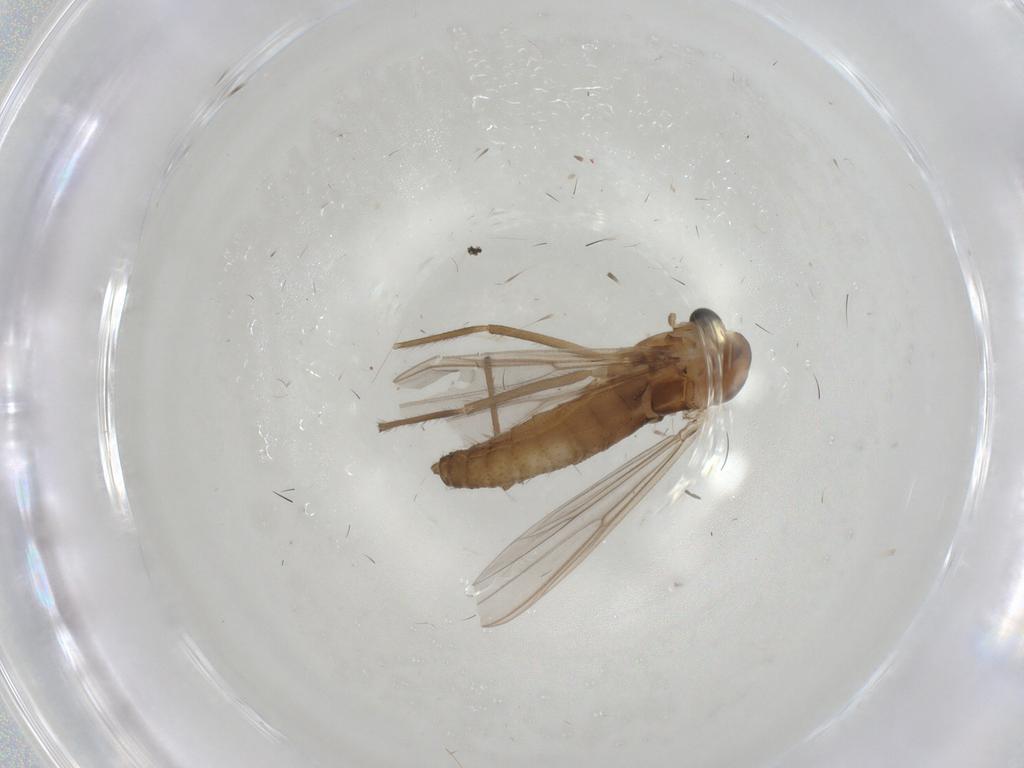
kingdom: Animalia
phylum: Arthropoda
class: Insecta
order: Diptera
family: Chironomidae
